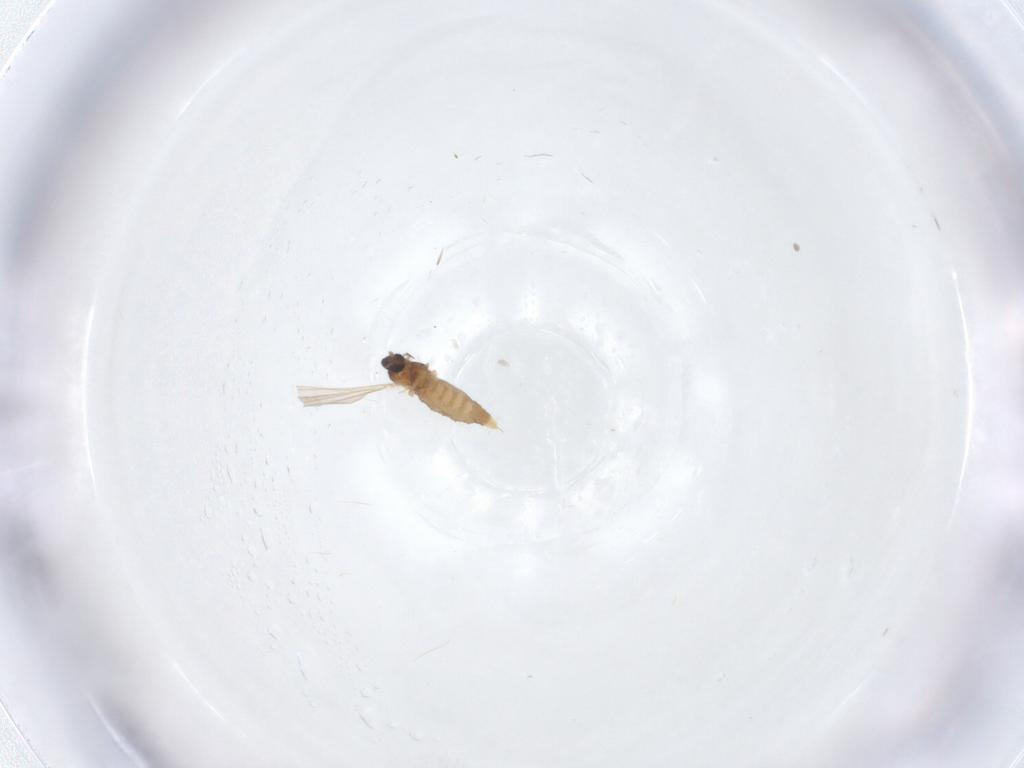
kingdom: Animalia
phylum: Arthropoda
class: Insecta
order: Diptera
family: Cecidomyiidae
